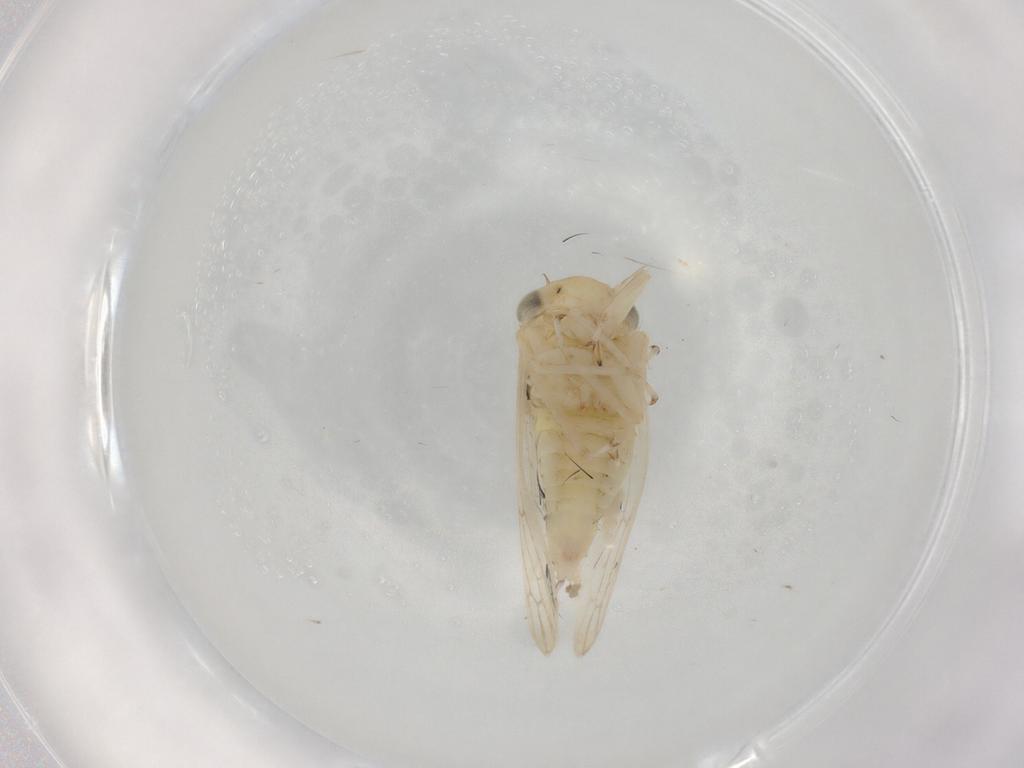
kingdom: Animalia
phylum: Arthropoda
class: Insecta
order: Hemiptera
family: Cicadellidae
